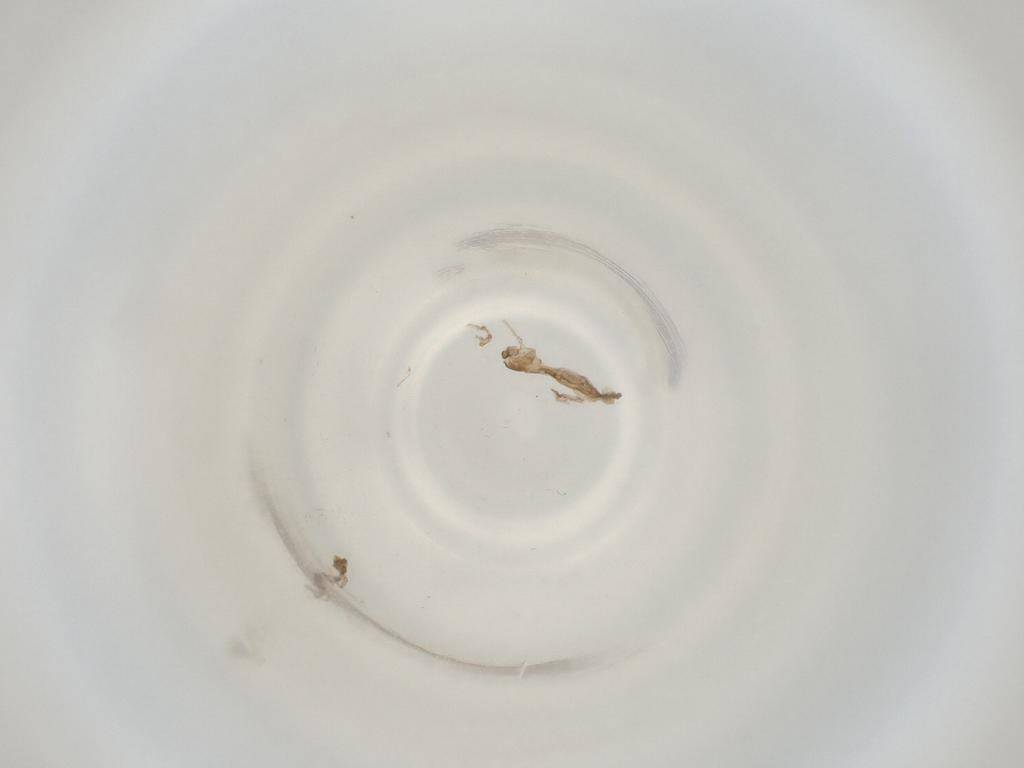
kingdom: Animalia
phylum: Arthropoda
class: Insecta
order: Diptera
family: Cecidomyiidae
